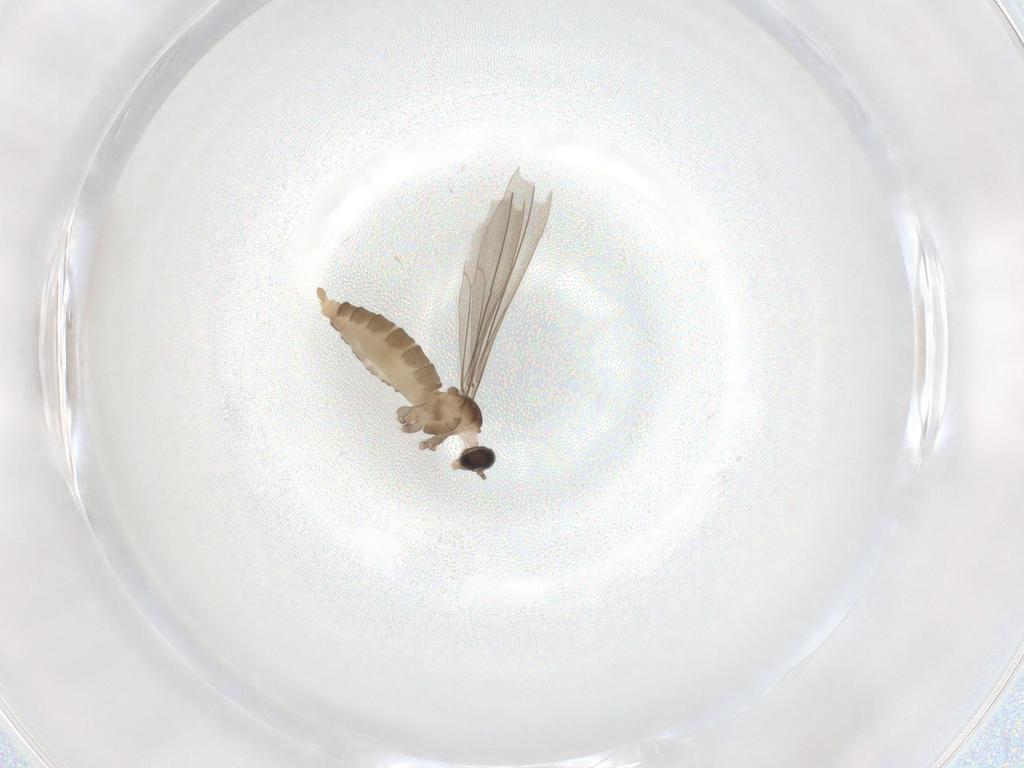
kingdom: Animalia
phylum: Arthropoda
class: Insecta
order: Diptera
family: Cecidomyiidae
